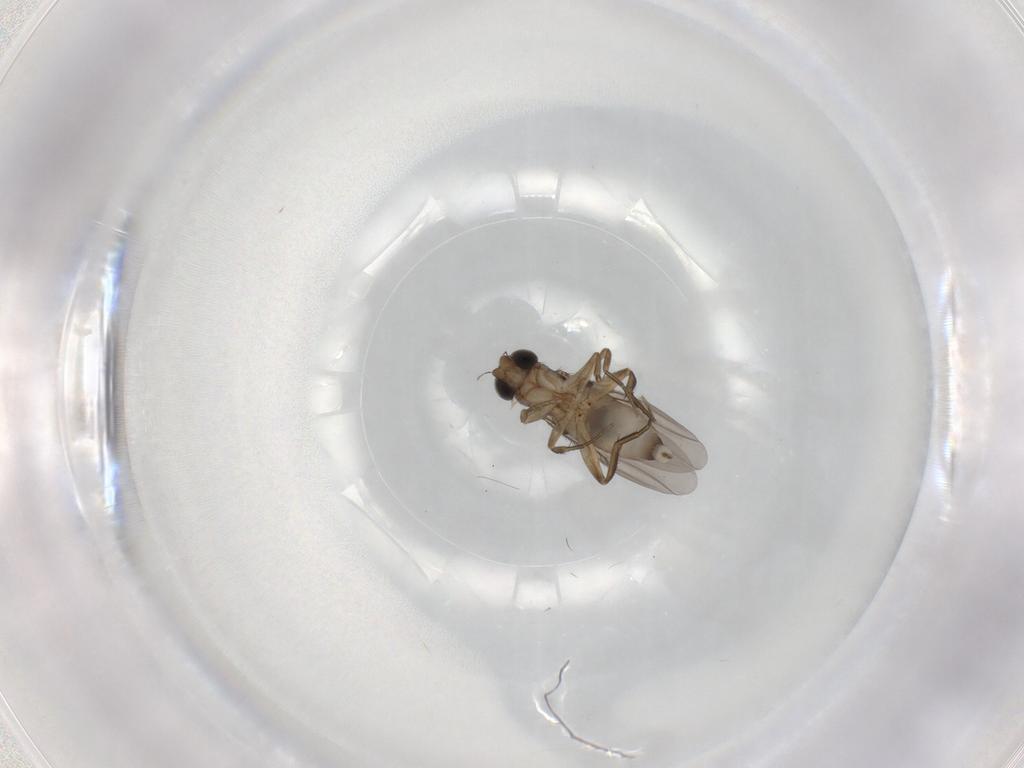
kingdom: Animalia
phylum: Arthropoda
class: Insecta
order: Diptera
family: Phoridae
